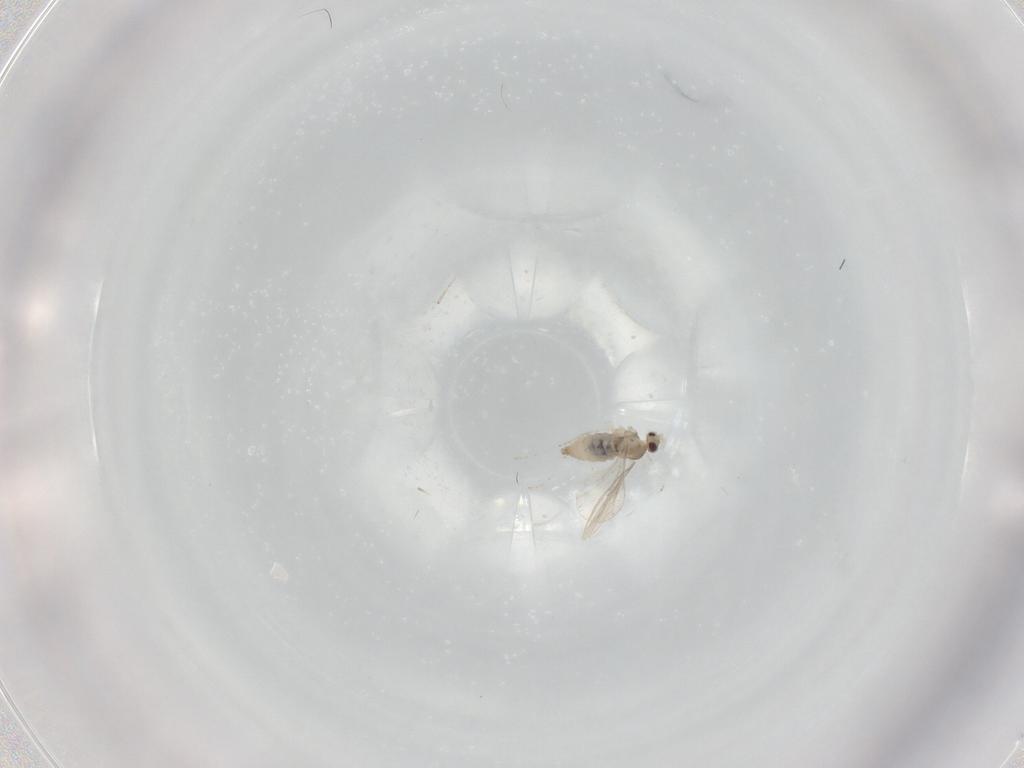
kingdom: Animalia
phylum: Arthropoda
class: Insecta
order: Diptera
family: Cecidomyiidae
